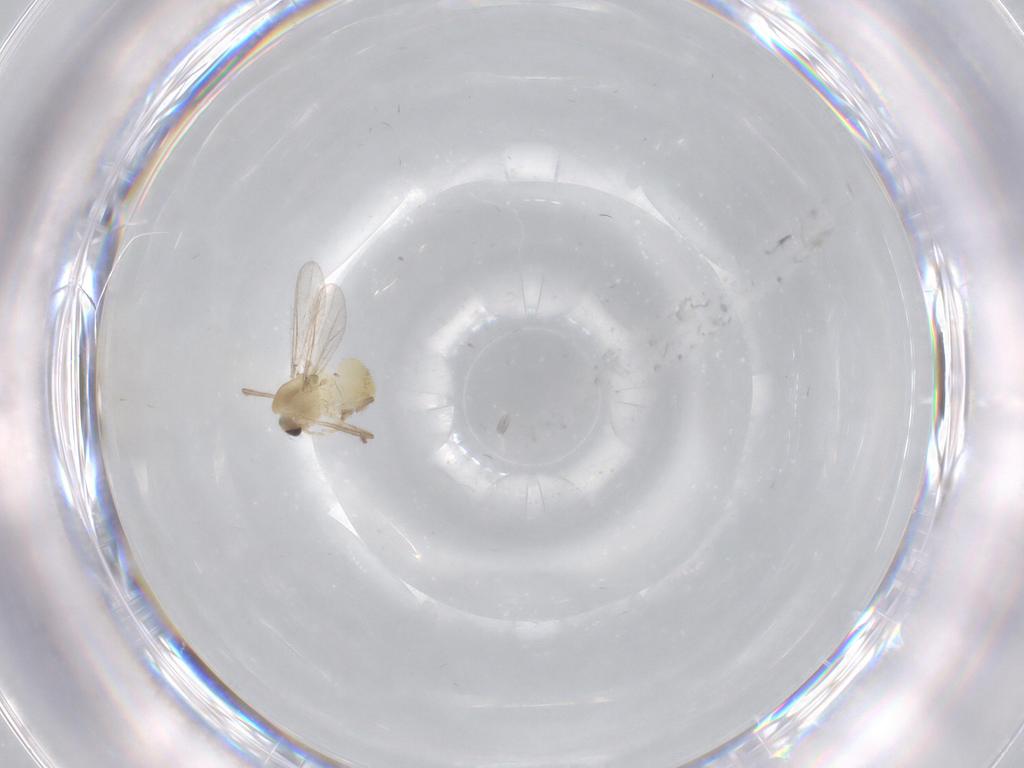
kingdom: Animalia
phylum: Arthropoda
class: Insecta
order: Diptera
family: Chironomidae
